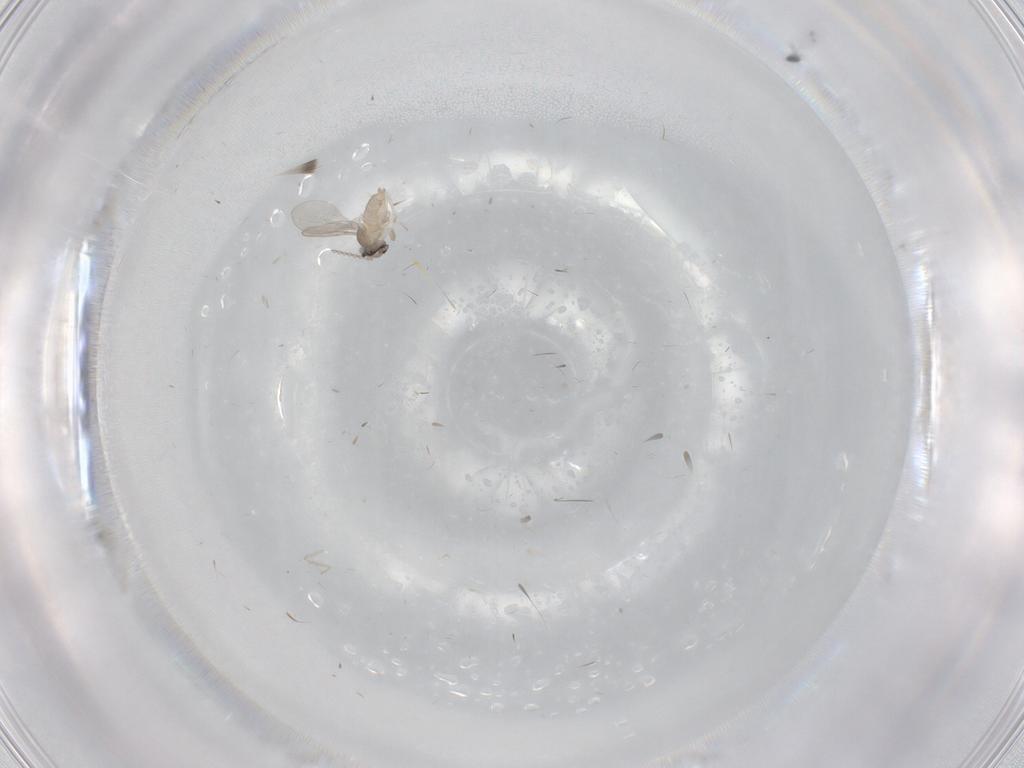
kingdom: Animalia
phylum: Arthropoda
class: Insecta
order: Diptera
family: Cecidomyiidae
